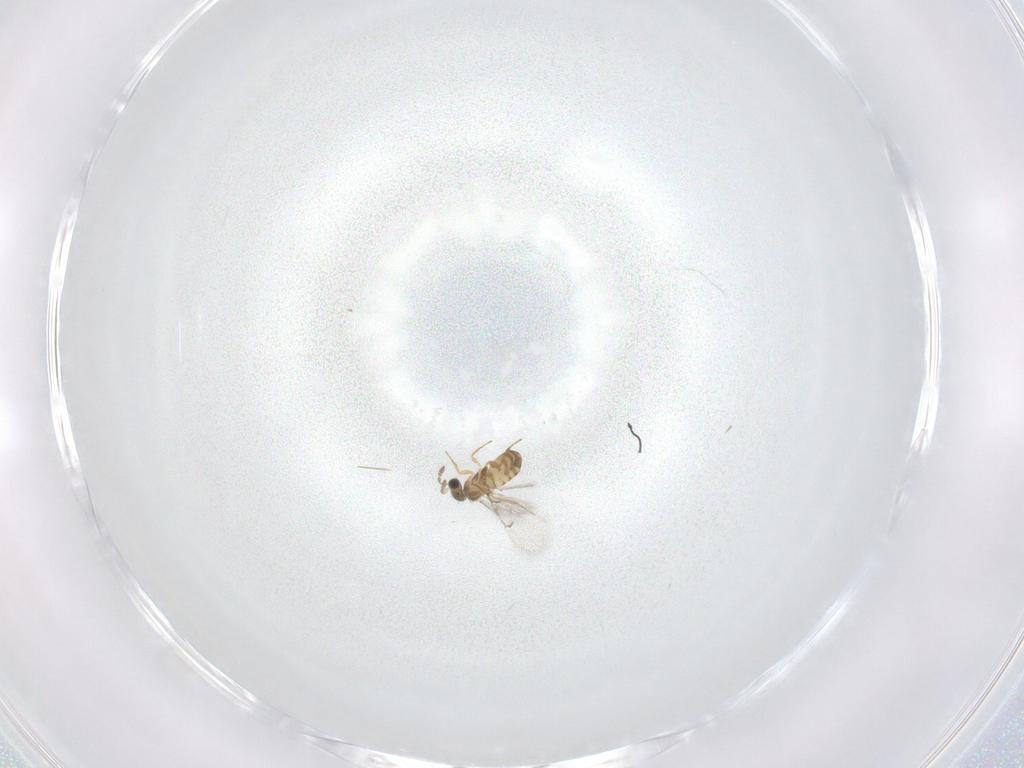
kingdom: Animalia
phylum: Arthropoda
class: Insecta
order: Hymenoptera
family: Trichogrammatidae
